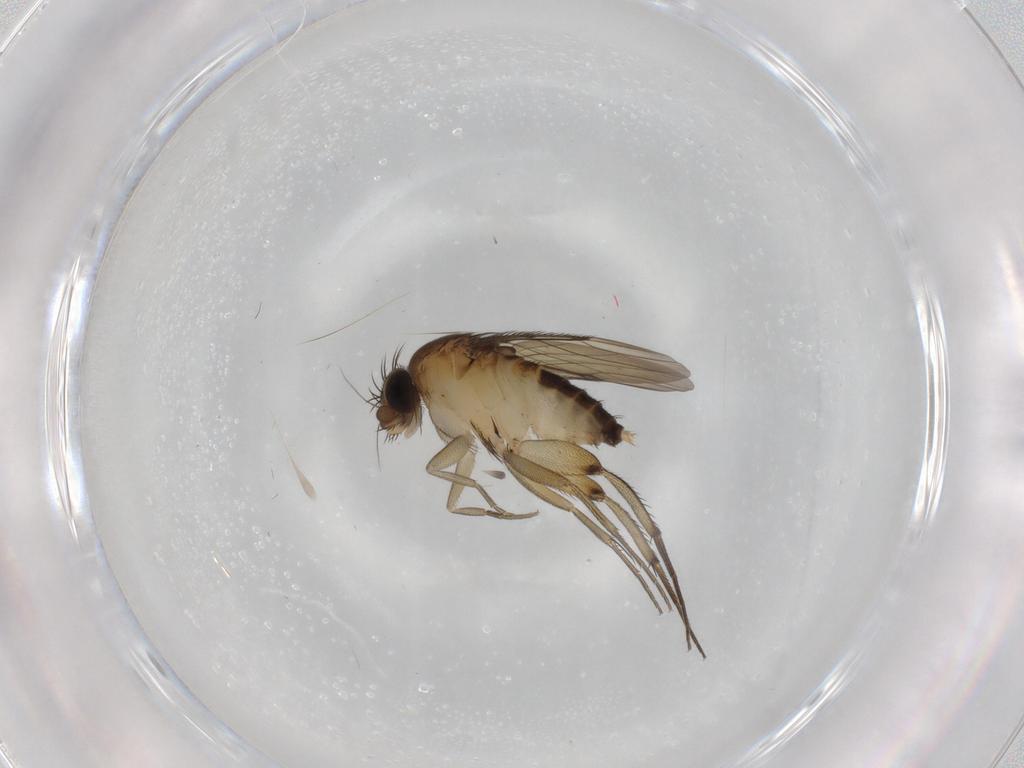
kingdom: Animalia
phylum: Arthropoda
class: Insecta
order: Diptera
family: Phoridae
